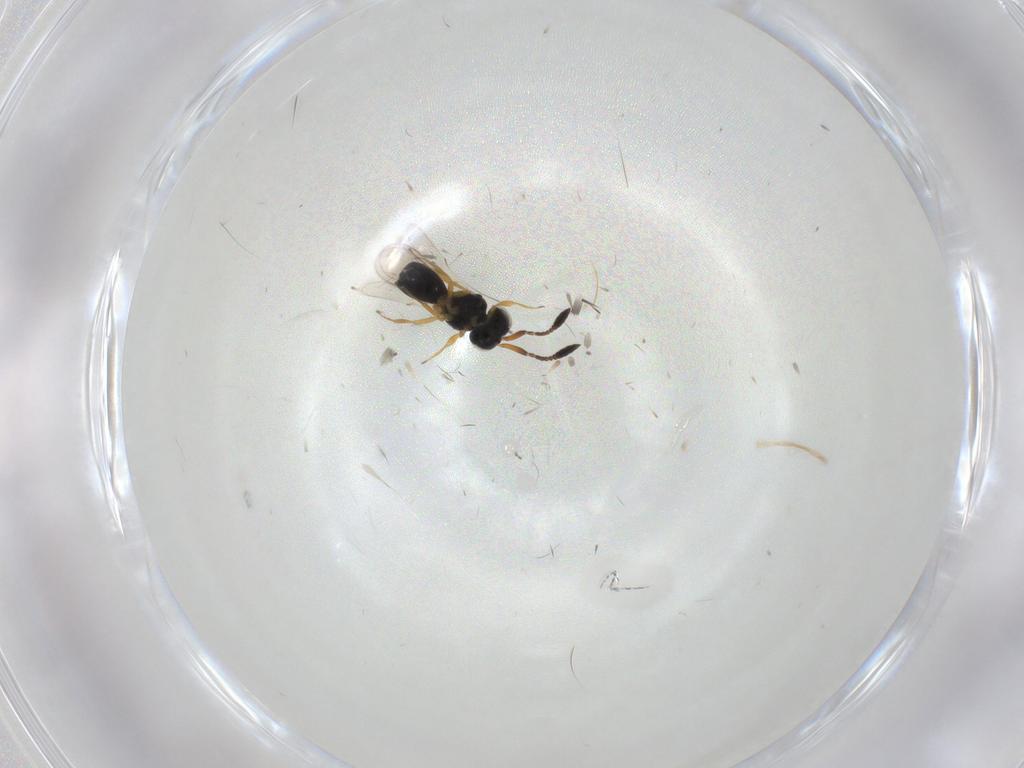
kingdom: Animalia
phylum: Arthropoda
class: Insecta
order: Hymenoptera
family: Scelionidae
